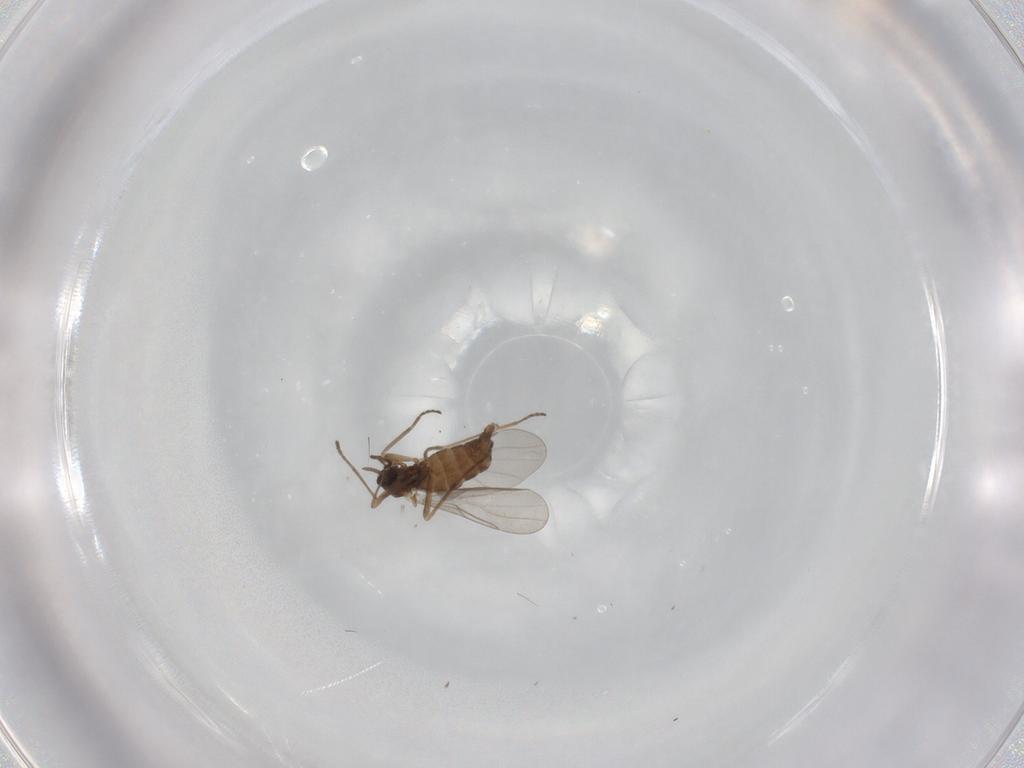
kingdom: Animalia
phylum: Arthropoda
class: Insecta
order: Diptera
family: Cecidomyiidae
